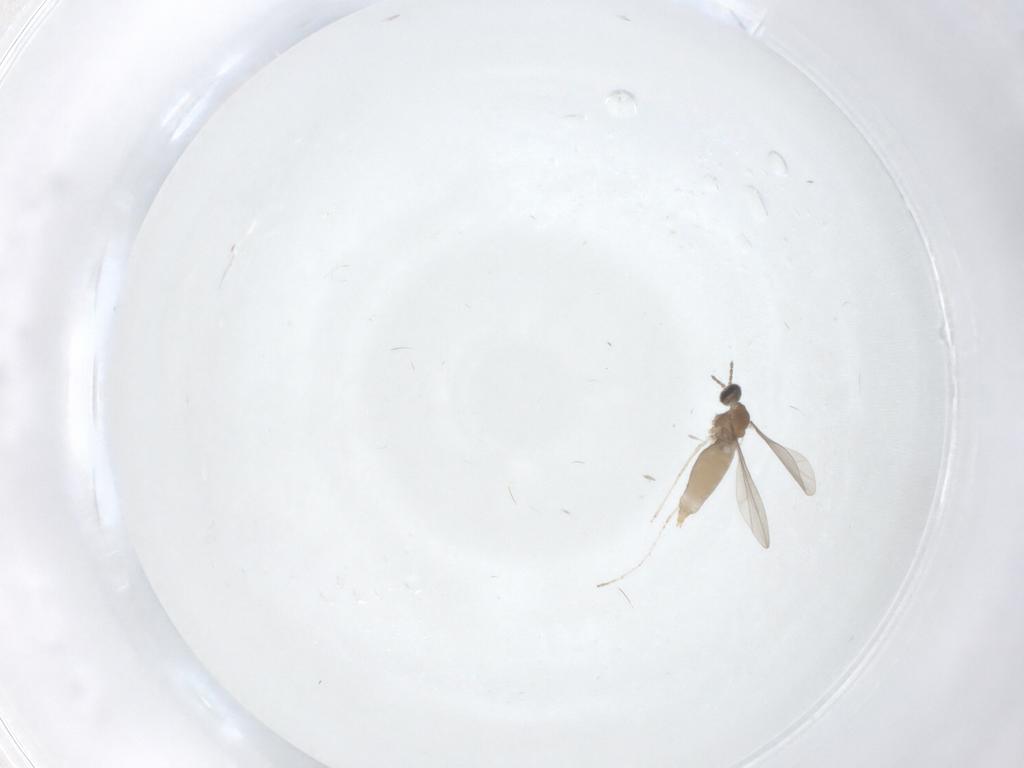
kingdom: Animalia
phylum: Arthropoda
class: Insecta
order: Diptera
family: Cecidomyiidae
